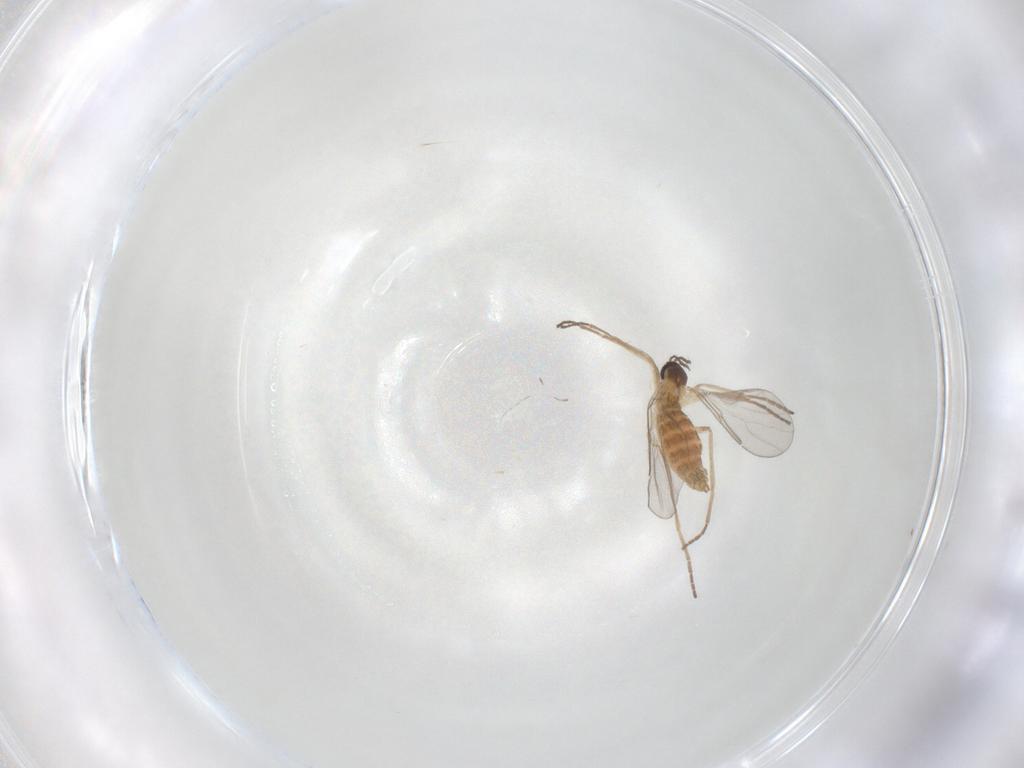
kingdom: Animalia
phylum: Arthropoda
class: Insecta
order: Diptera
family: Cecidomyiidae
